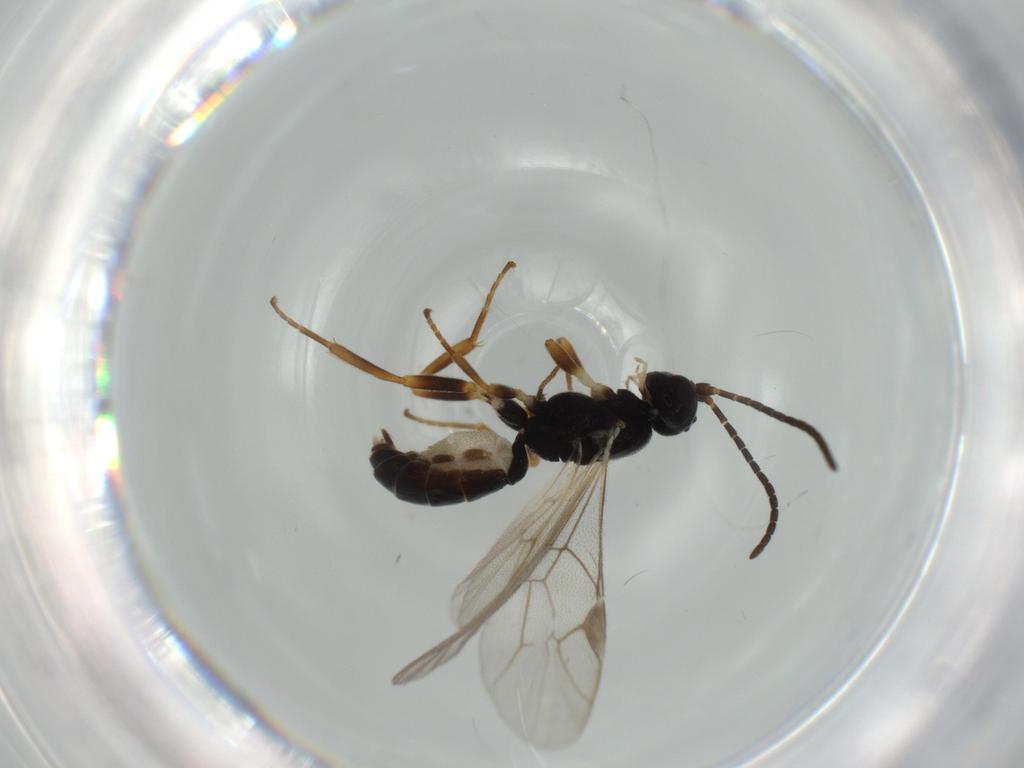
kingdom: Animalia
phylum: Arthropoda
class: Insecta
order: Hymenoptera
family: Ichneumonidae
